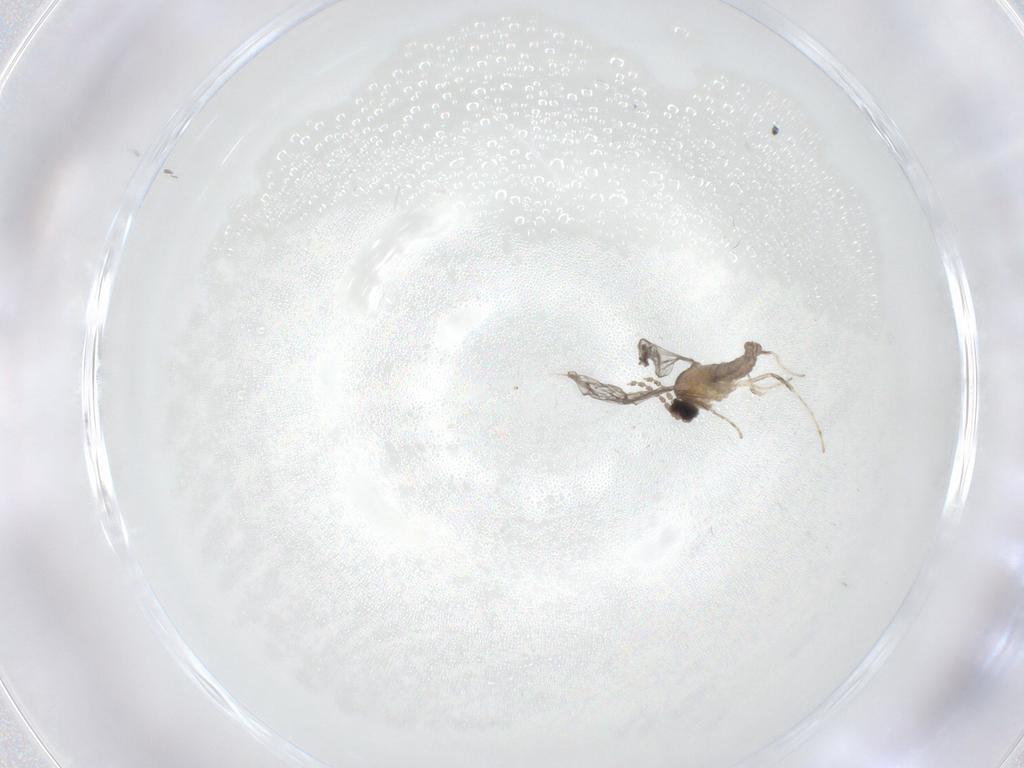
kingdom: Animalia
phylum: Arthropoda
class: Insecta
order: Diptera
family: Cecidomyiidae
